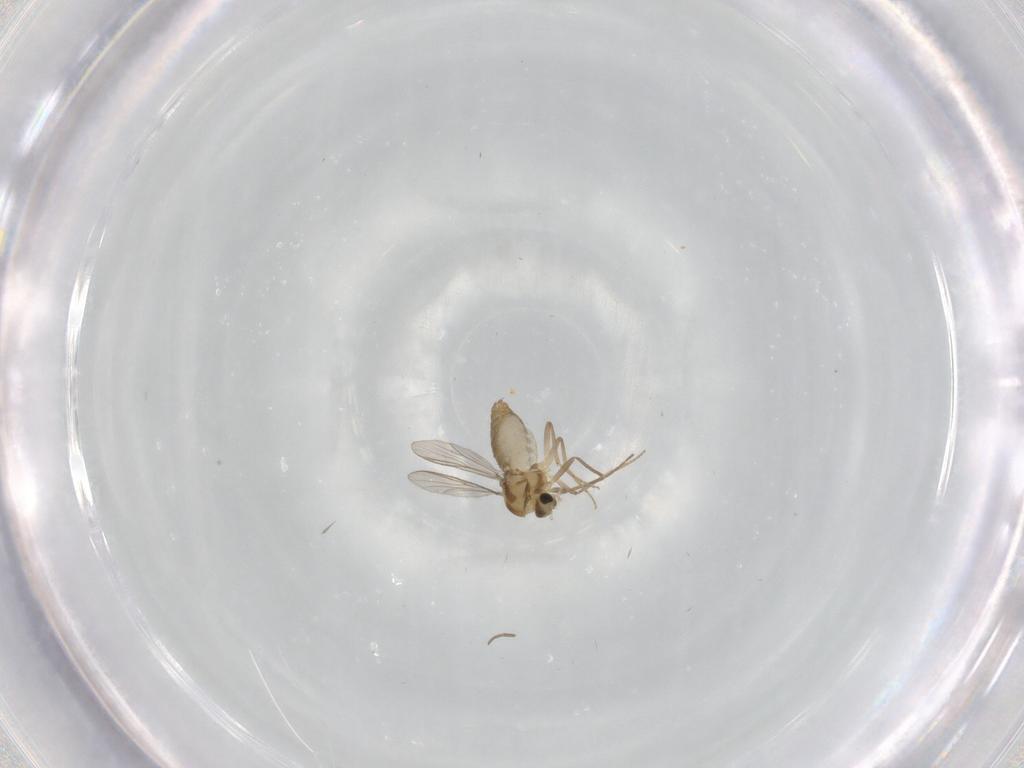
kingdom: Animalia
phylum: Arthropoda
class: Insecta
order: Diptera
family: Chironomidae
